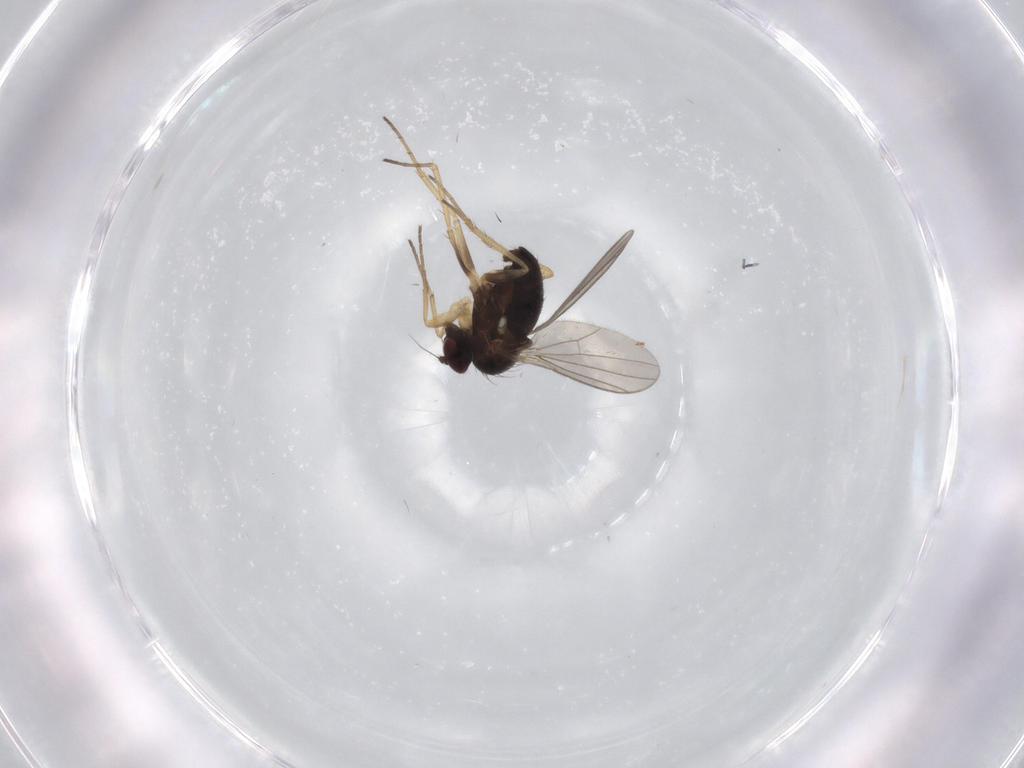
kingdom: Animalia
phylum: Arthropoda
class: Insecta
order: Diptera
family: Dolichopodidae
